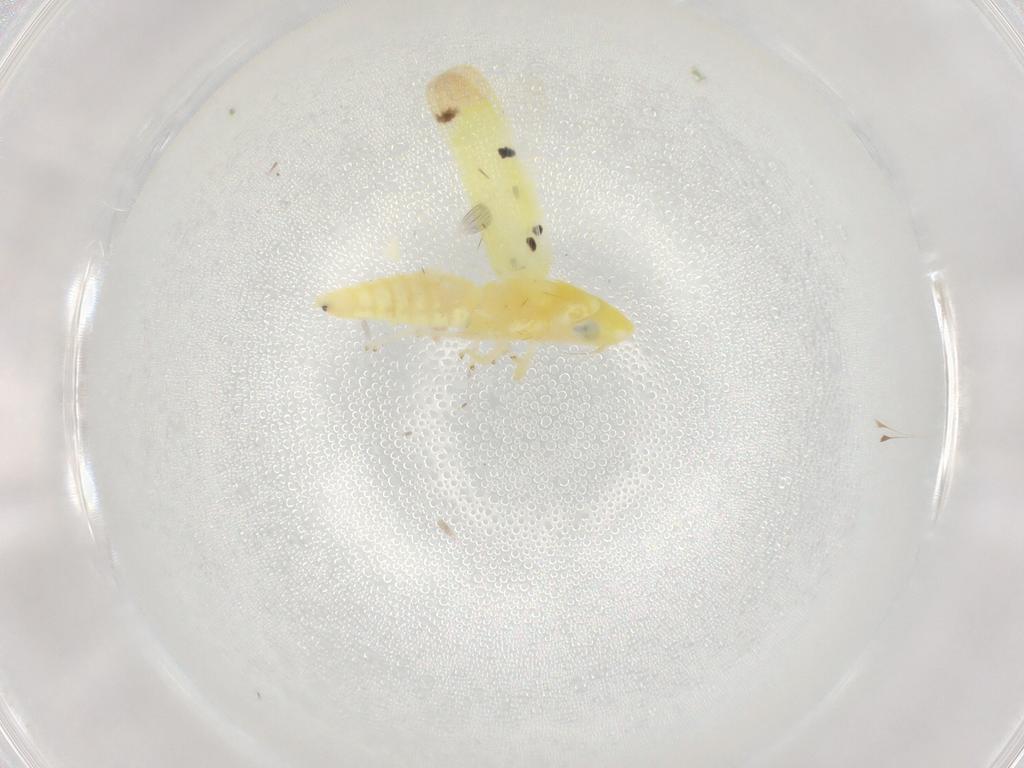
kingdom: Animalia
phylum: Arthropoda
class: Insecta
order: Hemiptera
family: Cicadellidae
